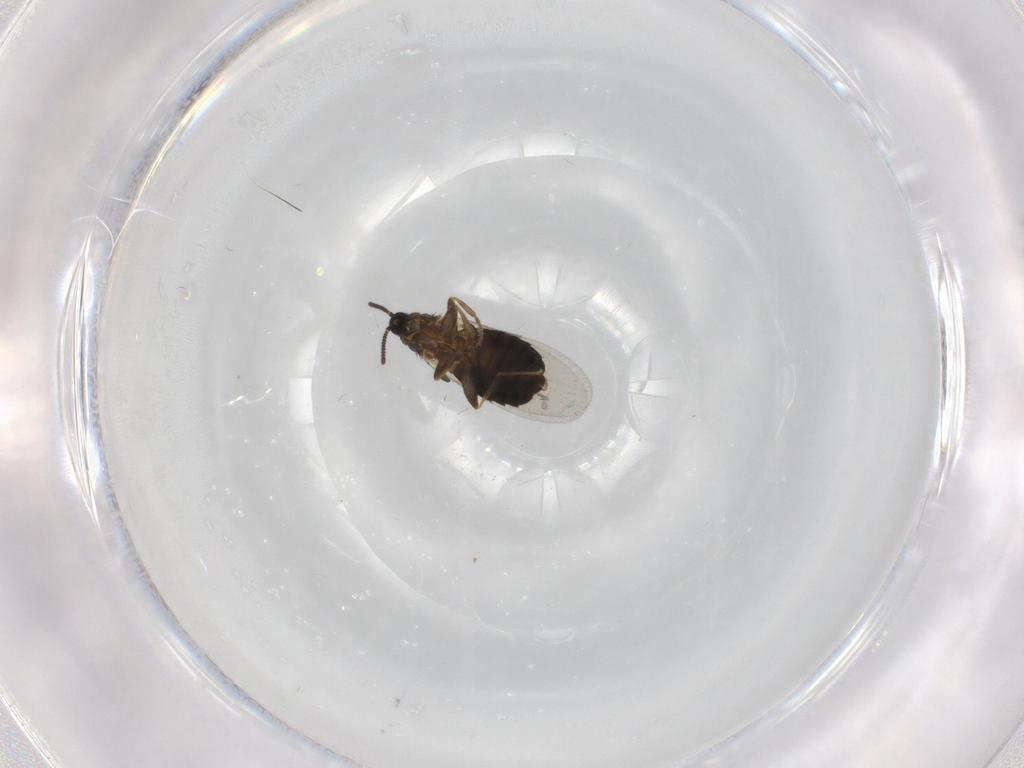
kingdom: Animalia
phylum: Arthropoda
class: Insecta
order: Diptera
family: Scatopsidae
